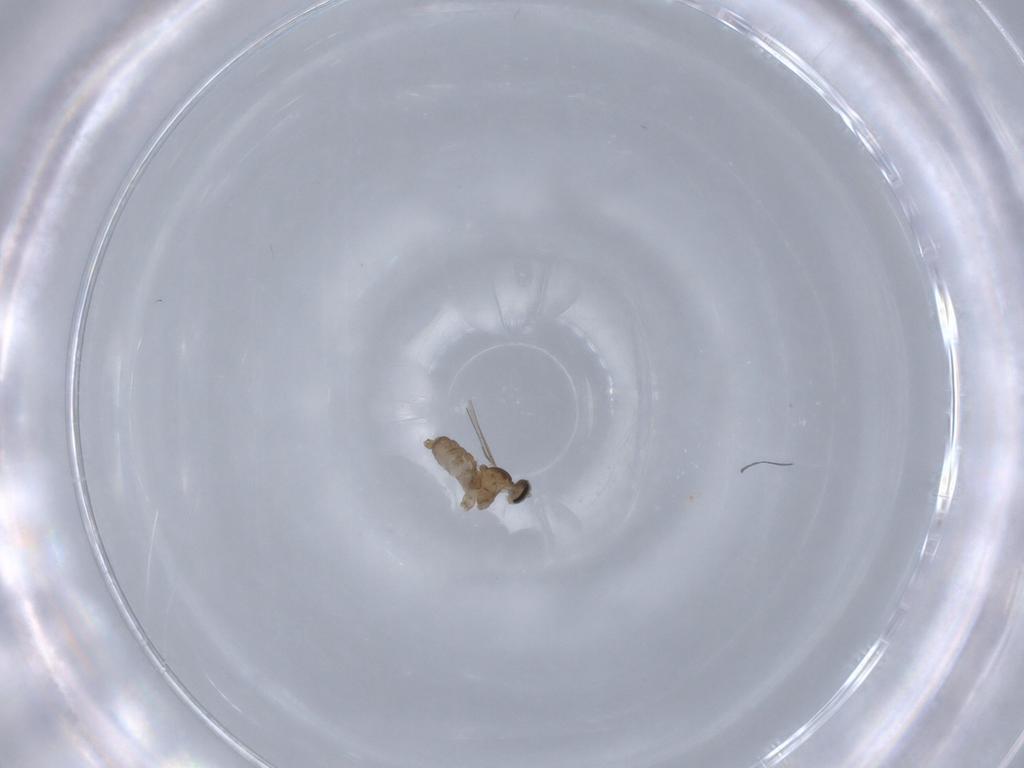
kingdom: Animalia
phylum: Arthropoda
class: Insecta
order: Diptera
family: Cecidomyiidae
